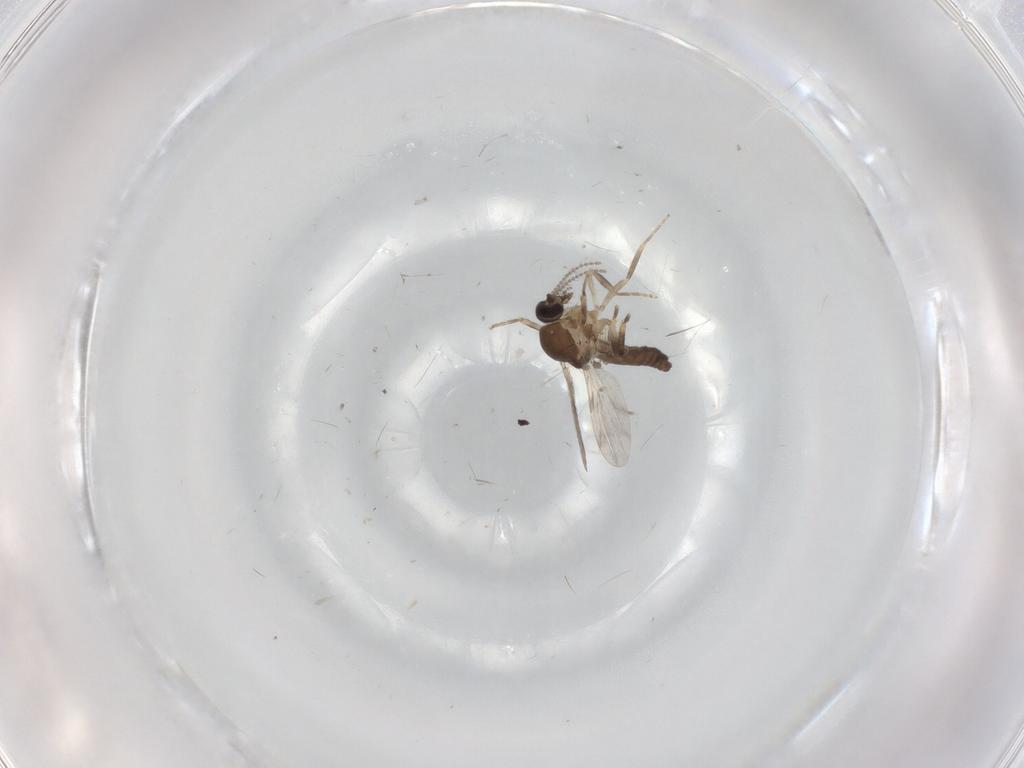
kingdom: Animalia
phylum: Arthropoda
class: Insecta
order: Diptera
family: Ceratopogonidae
